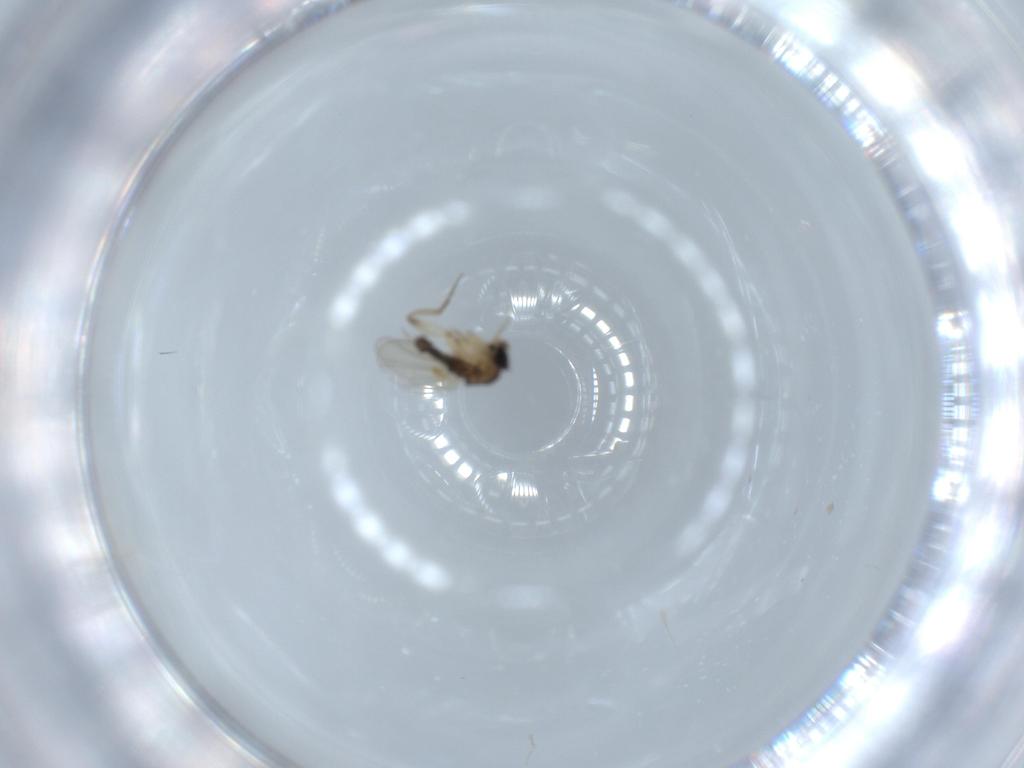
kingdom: Animalia
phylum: Arthropoda
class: Insecta
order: Diptera
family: Phoridae
